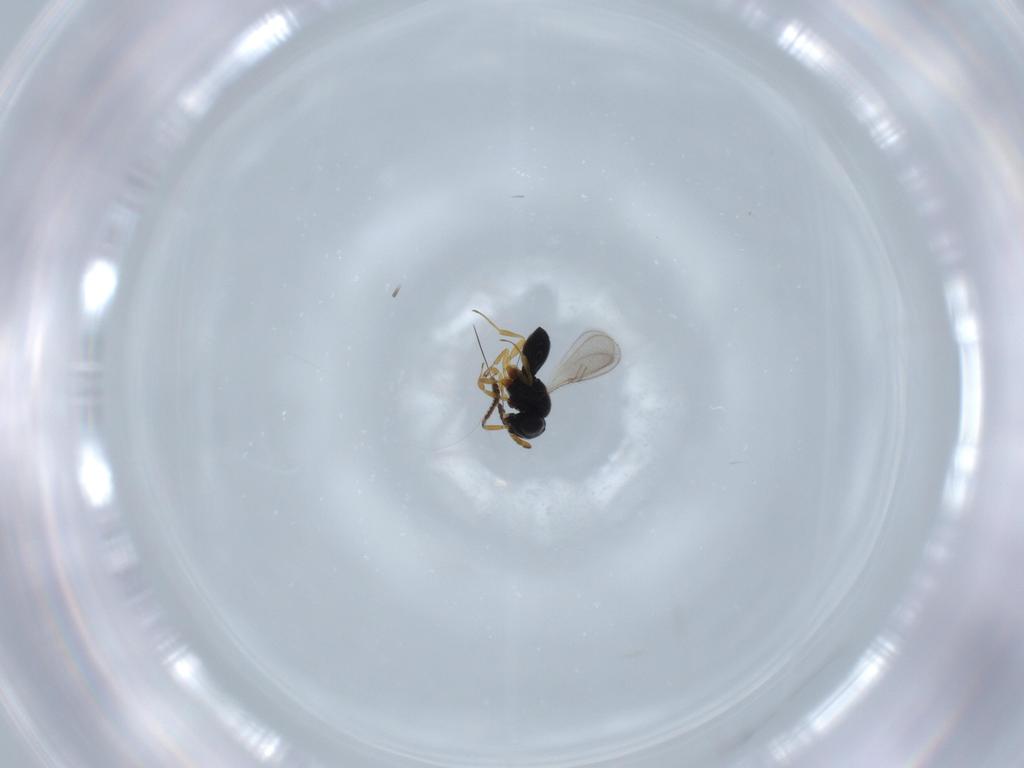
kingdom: Animalia
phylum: Arthropoda
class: Insecta
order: Hymenoptera
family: Scelionidae
